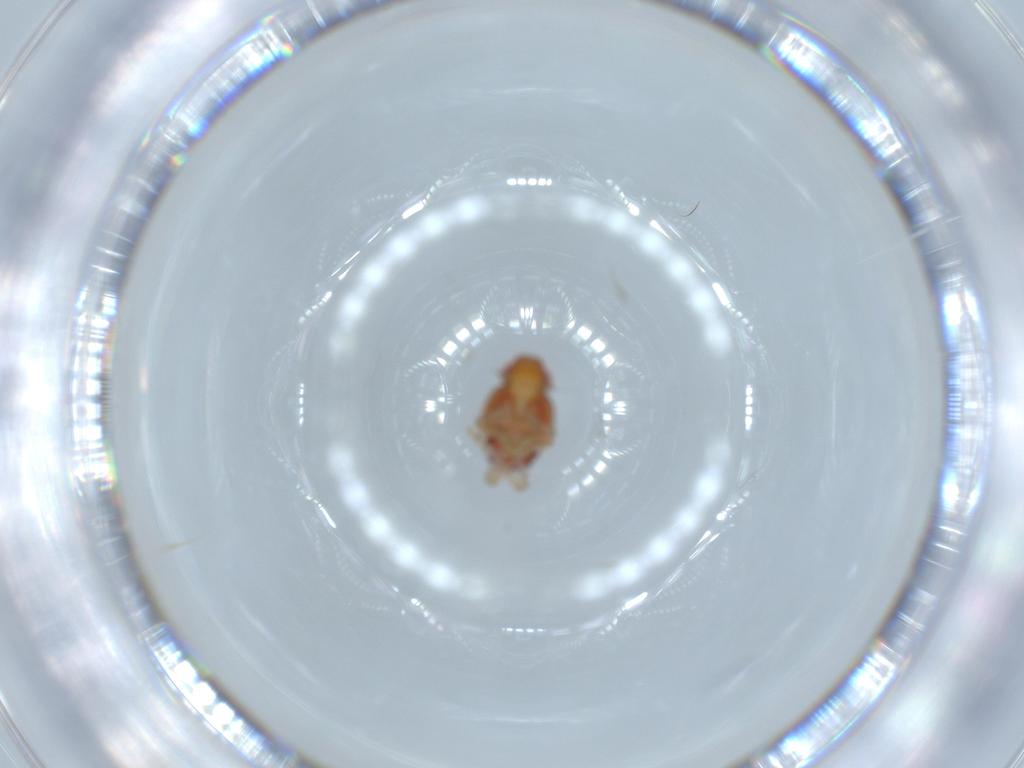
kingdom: Animalia
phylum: Arthropoda
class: Insecta
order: Hemiptera
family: Issidae
